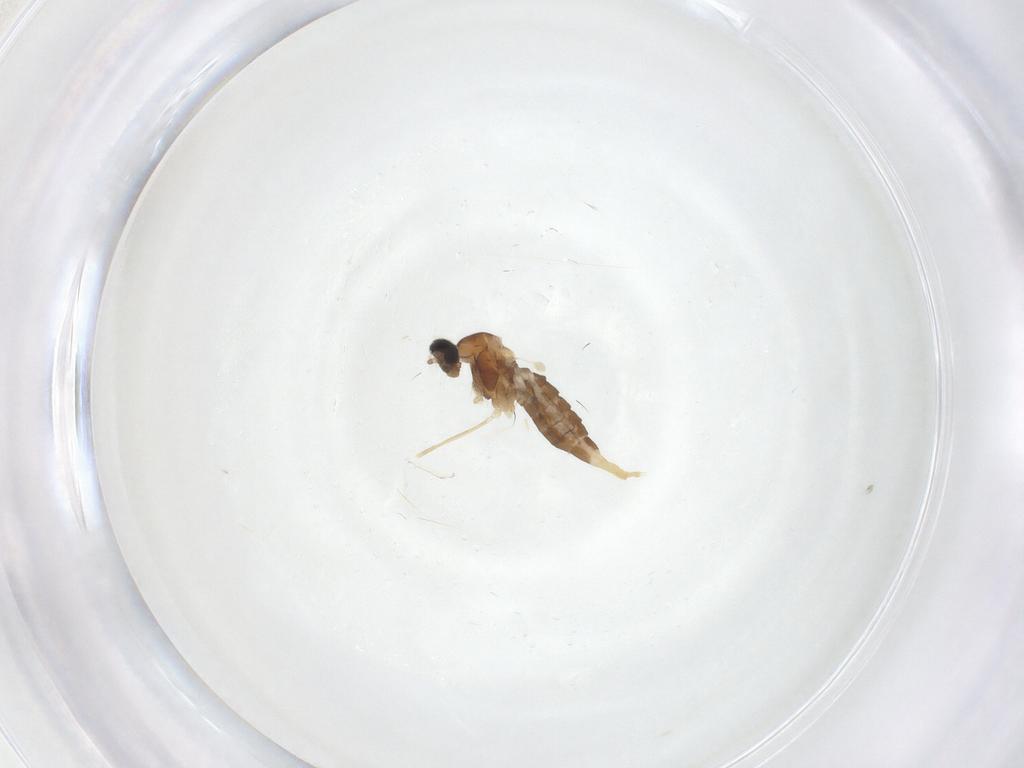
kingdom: Animalia
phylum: Arthropoda
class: Insecta
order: Diptera
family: Cecidomyiidae
